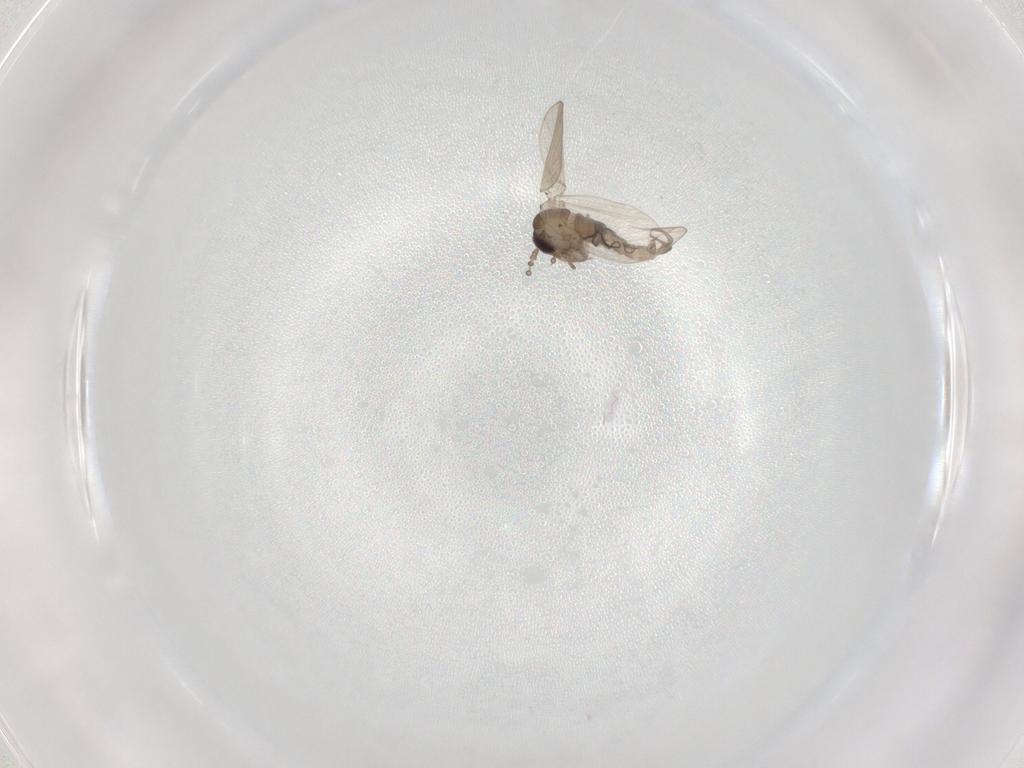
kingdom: Animalia
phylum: Arthropoda
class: Insecta
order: Diptera
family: Psychodidae
